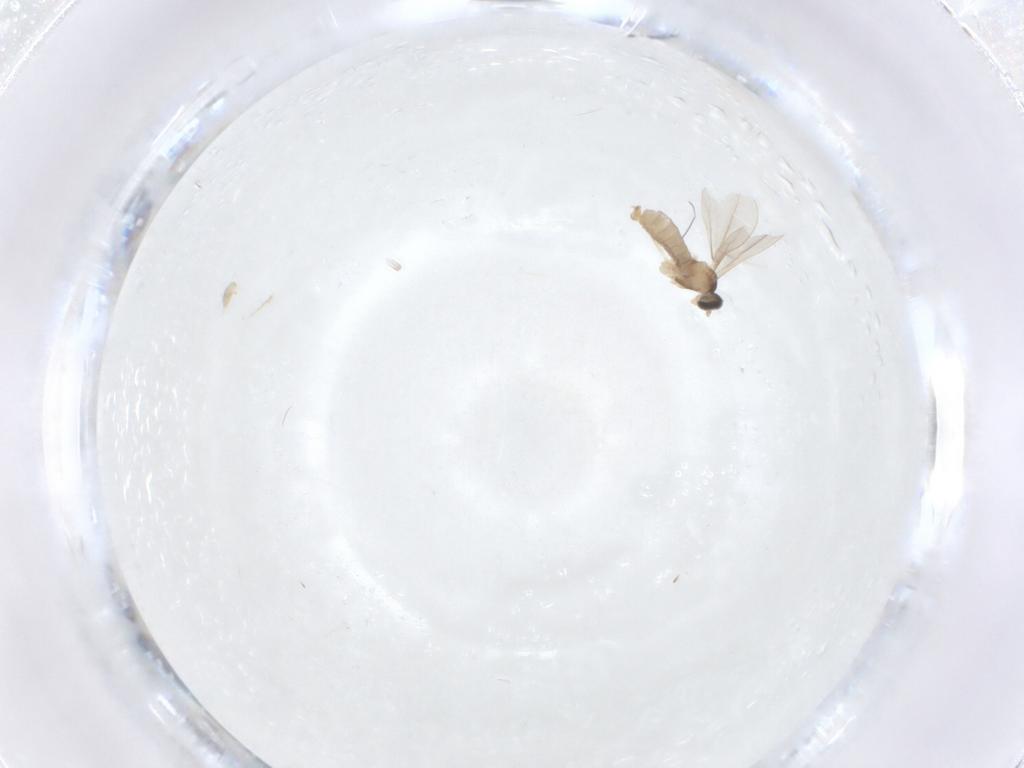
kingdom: Animalia
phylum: Arthropoda
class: Insecta
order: Diptera
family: Cecidomyiidae
